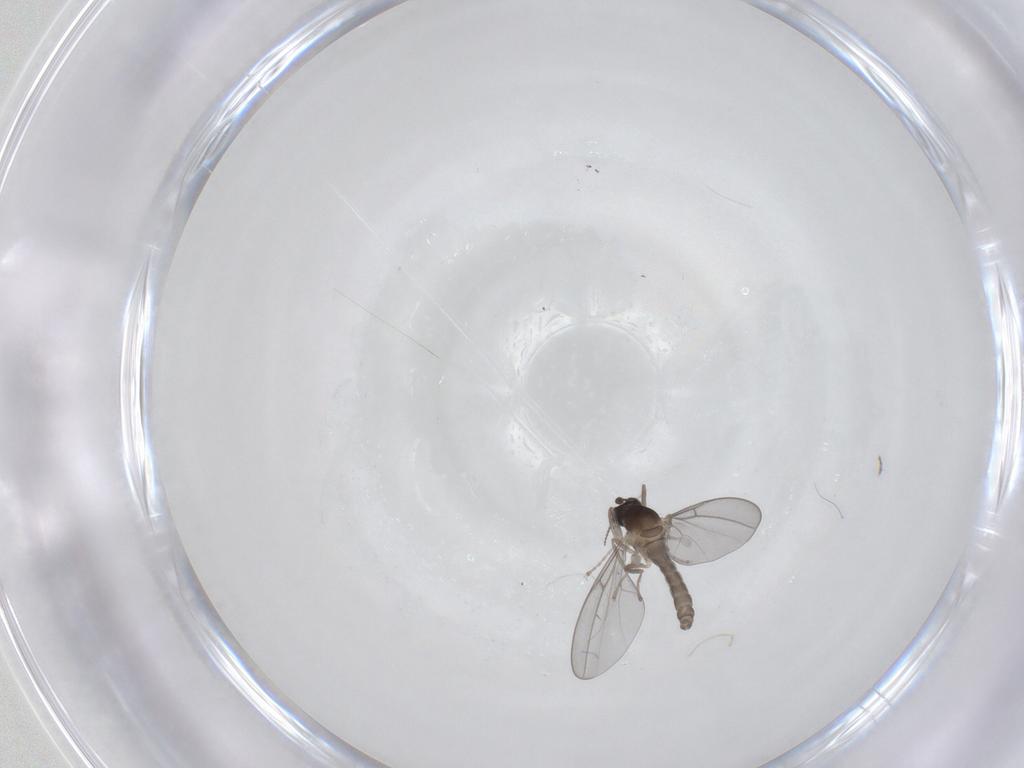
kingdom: Animalia
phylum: Arthropoda
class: Insecta
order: Diptera
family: Cecidomyiidae
